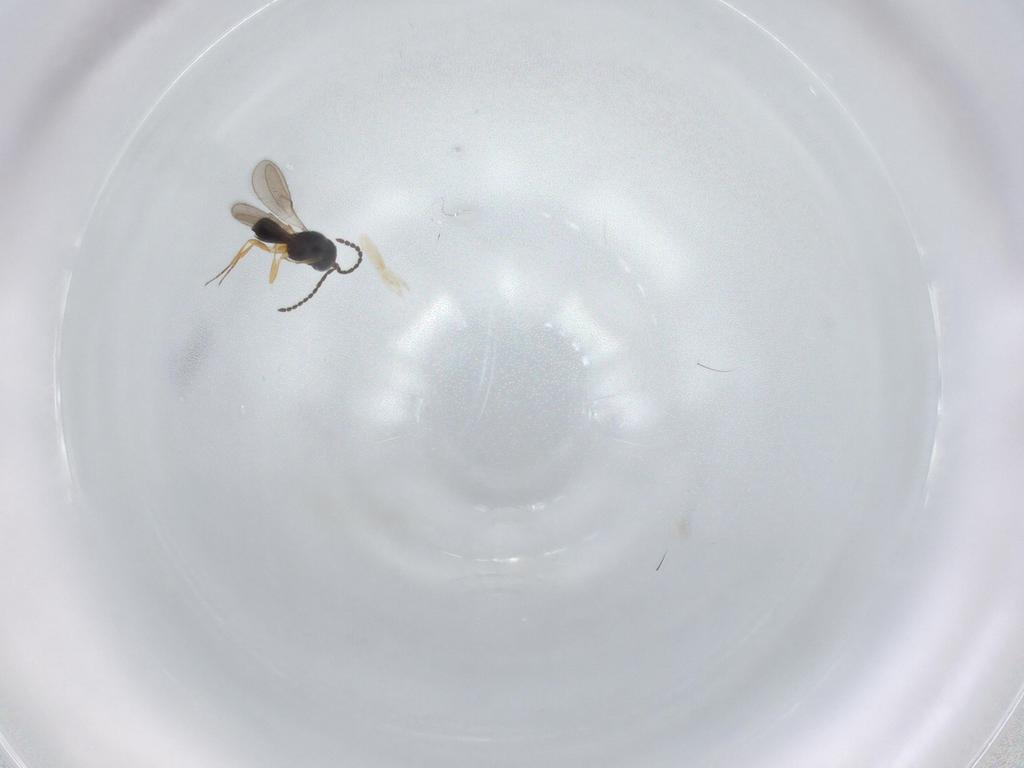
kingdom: Animalia
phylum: Arthropoda
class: Insecta
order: Hymenoptera
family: Scelionidae
